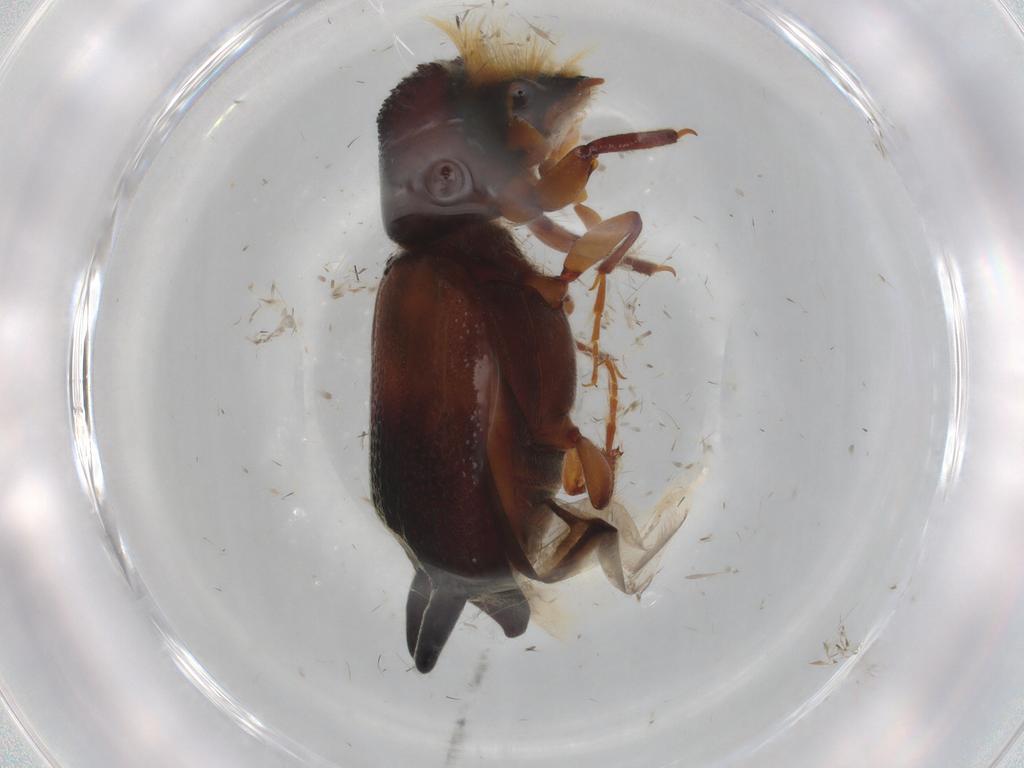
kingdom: Animalia
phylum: Arthropoda
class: Insecta
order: Coleoptera
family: Bostrichidae
